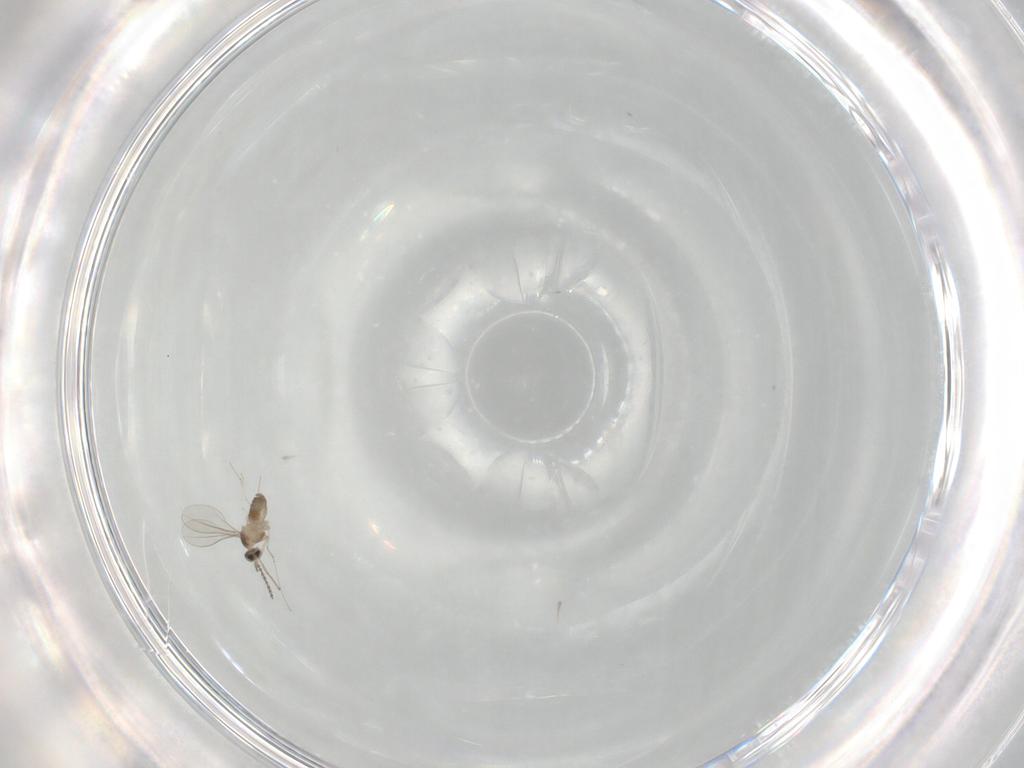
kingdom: Animalia
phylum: Arthropoda
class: Insecta
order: Diptera
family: Cecidomyiidae
